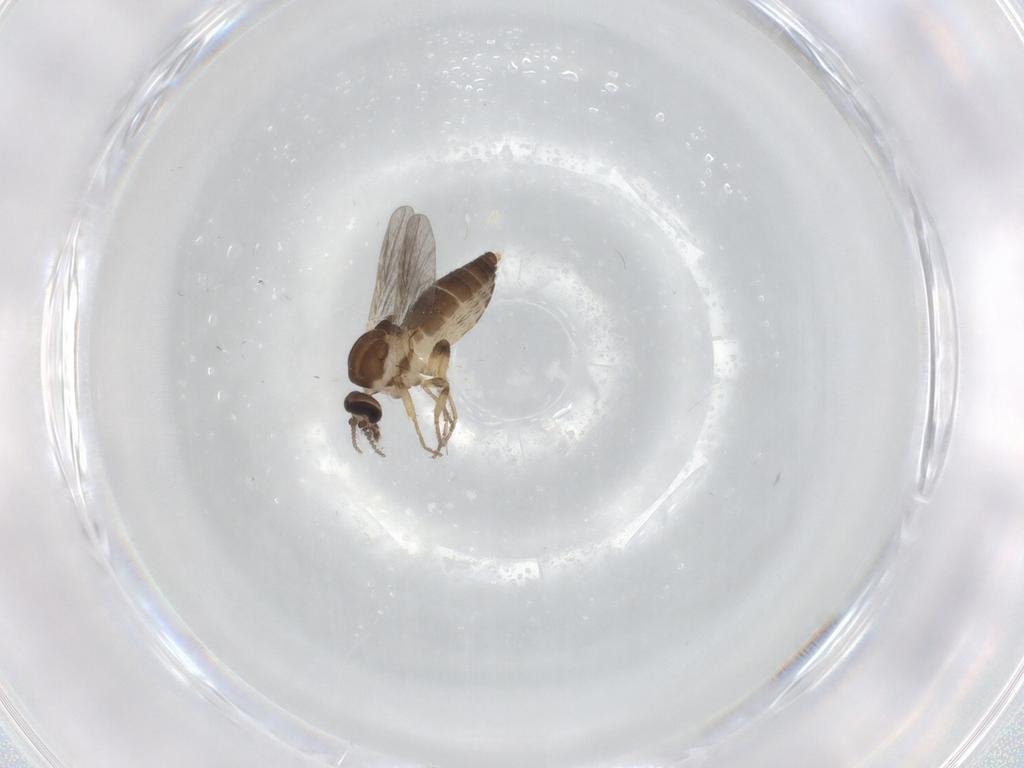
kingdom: Animalia
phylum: Arthropoda
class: Insecta
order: Diptera
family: Ceratopogonidae
